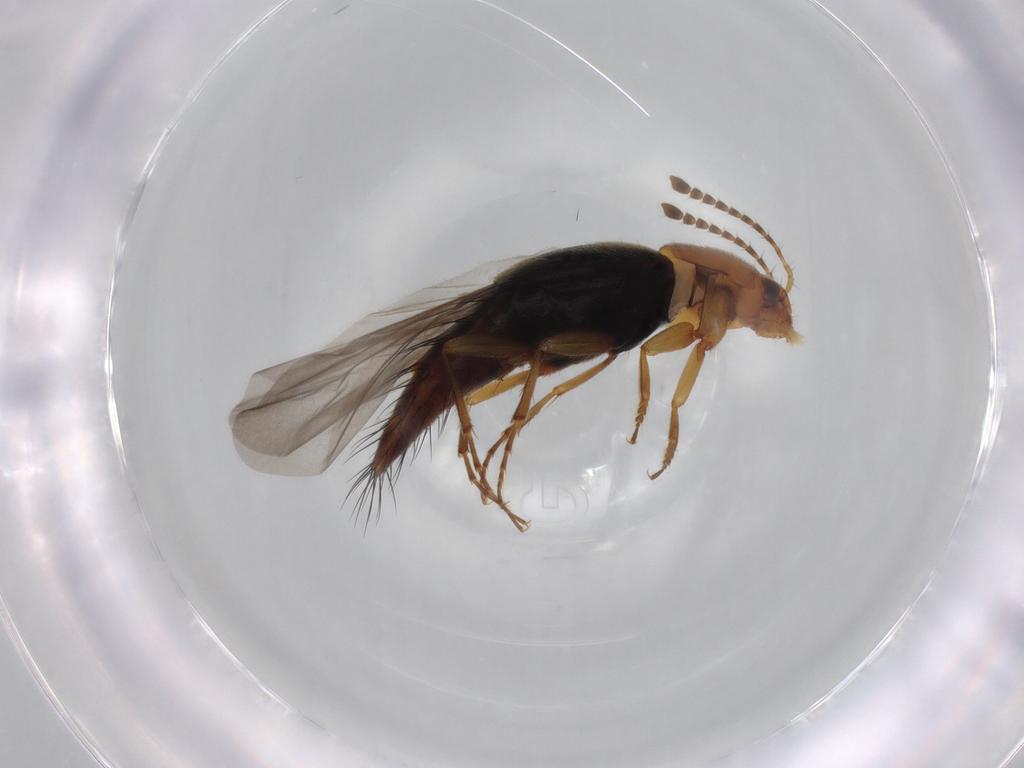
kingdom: Animalia
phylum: Arthropoda
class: Insecta
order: Coleoptera
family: Staphylinidae
